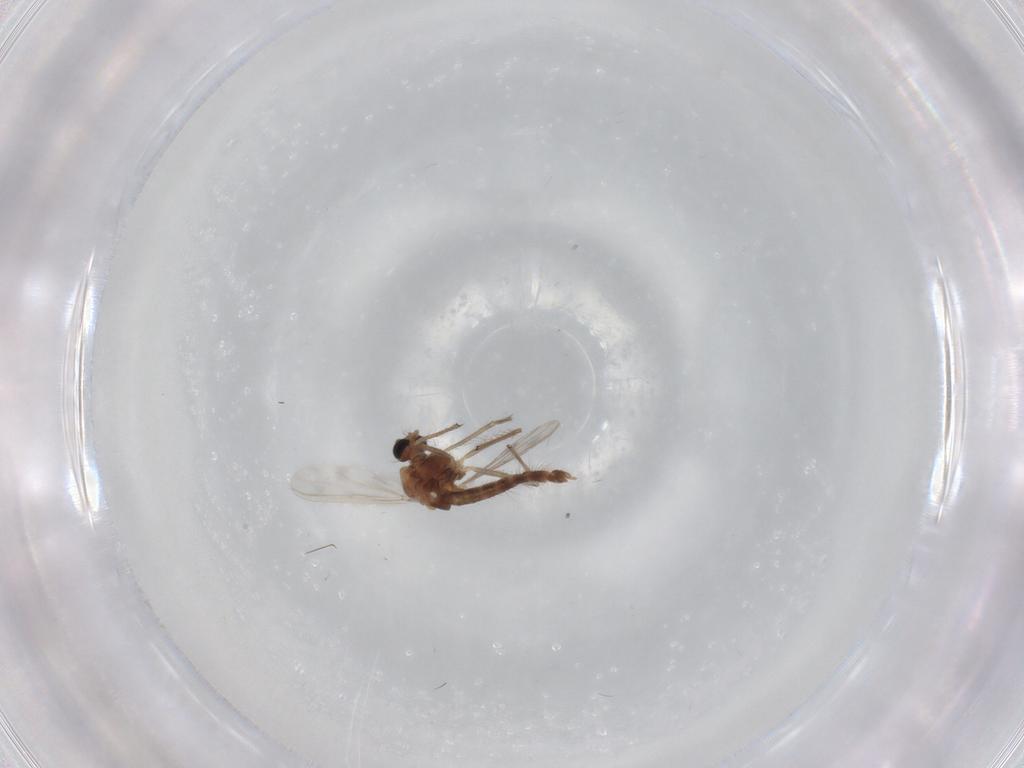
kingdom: Animalia
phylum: Arthropoda
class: Insecta
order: Diptera
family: Chironomidae
